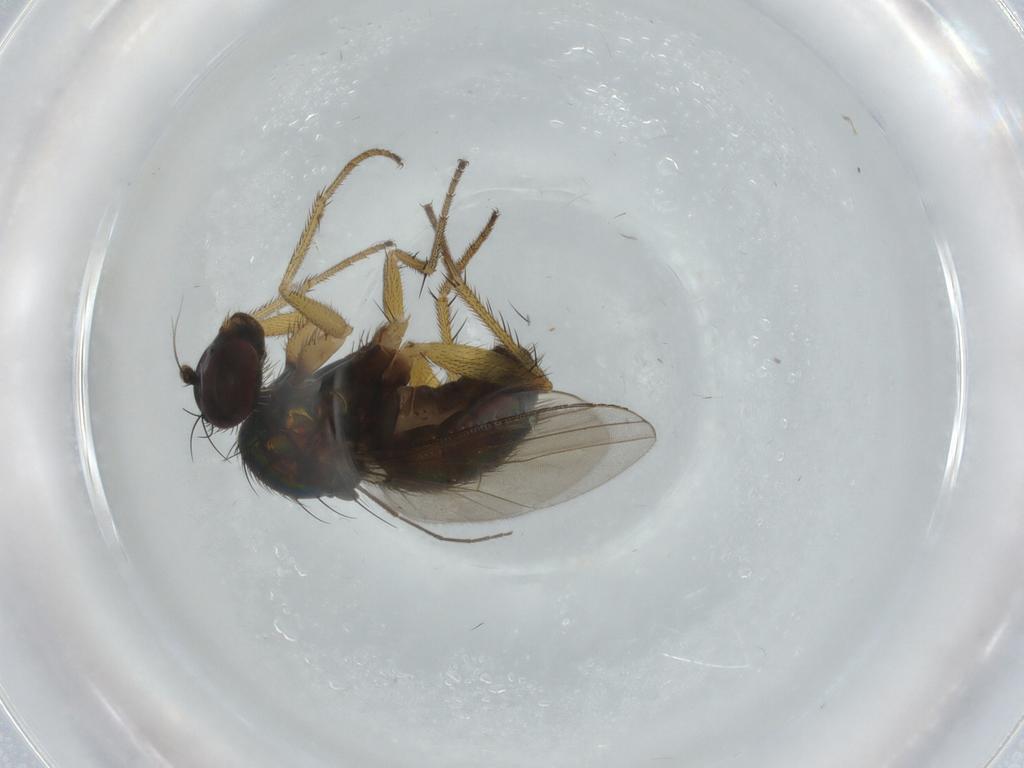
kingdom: Animalia
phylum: Arthropoda
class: Insecta
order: Diptera
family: Dolichopodidae
